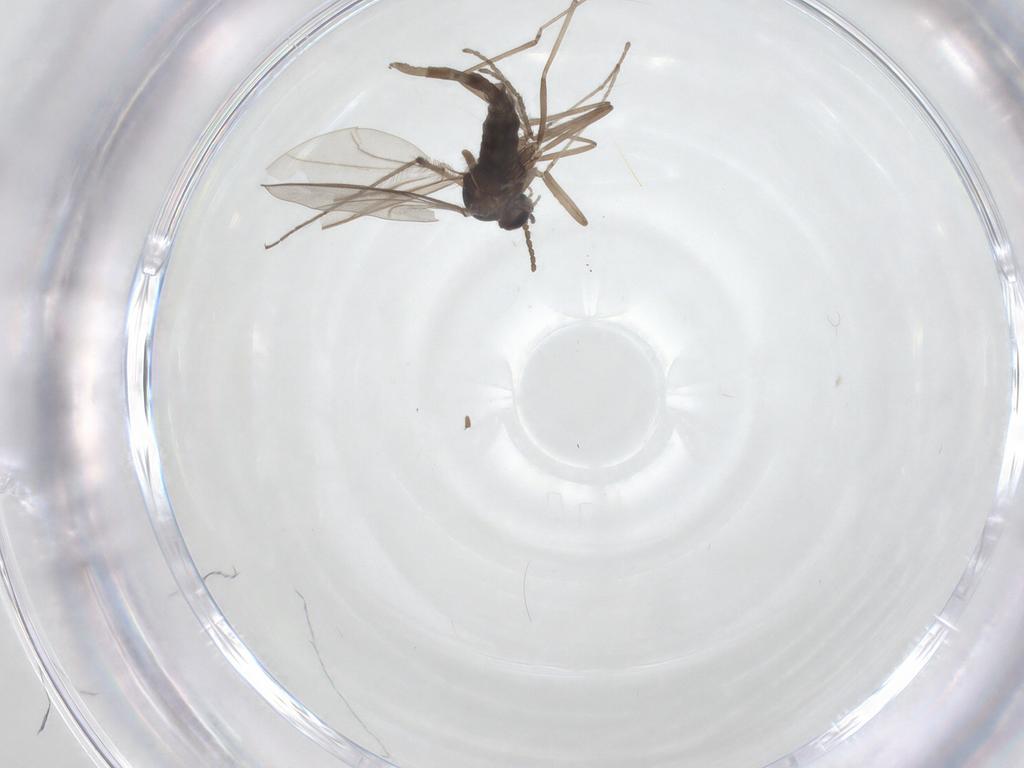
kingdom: Animalia
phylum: Arthropoda
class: Insecta
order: Diptera
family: Chironomidae
